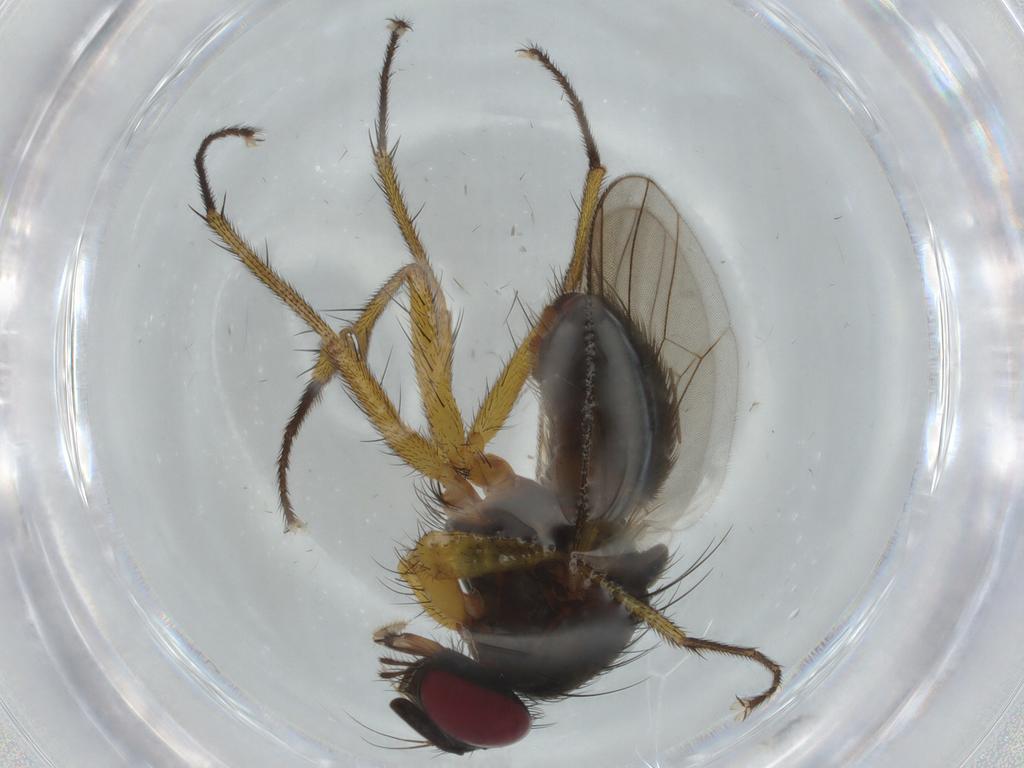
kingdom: Animalia
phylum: Arthropoda
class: Insecta
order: Diptera
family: Muscidae
